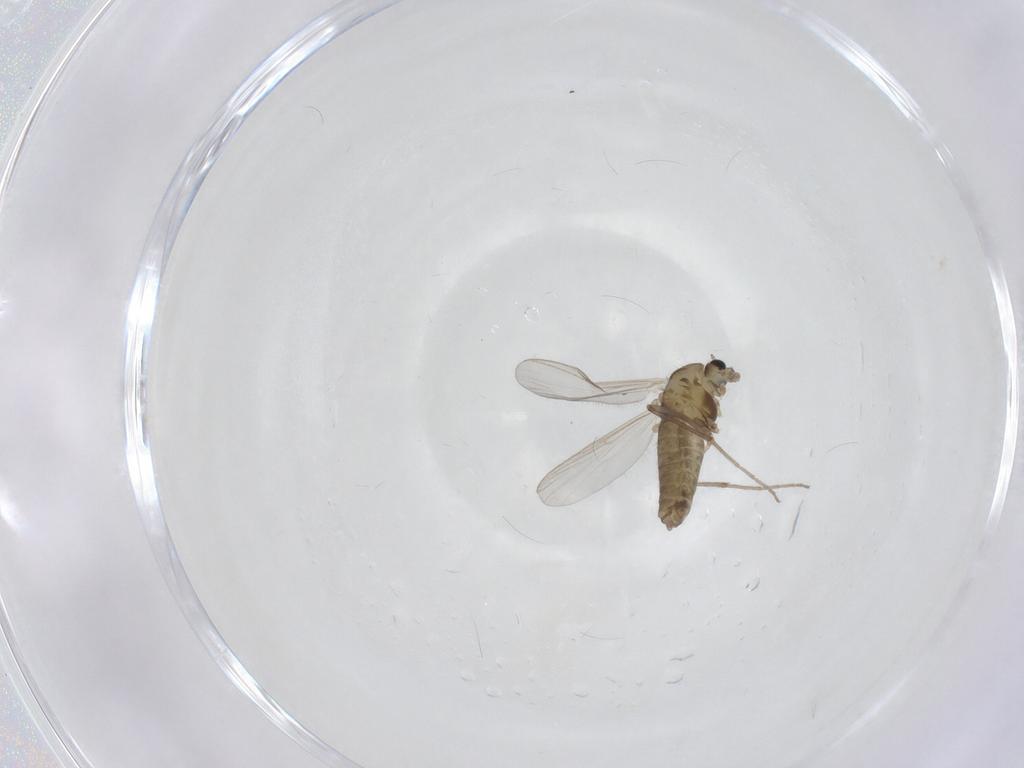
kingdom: Animalia
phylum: Arthropoda
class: Insecta
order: Diptera
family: Chironomidae
